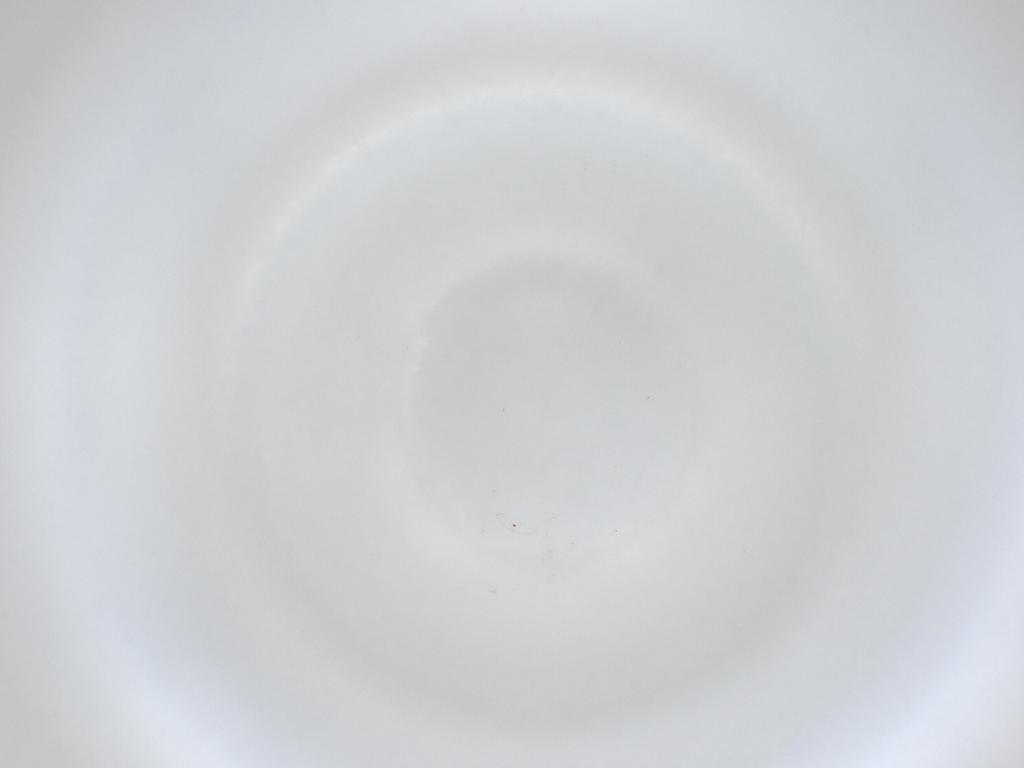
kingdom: Animalia
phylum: Arthropoda
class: Insecta
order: Diptera
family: Cecidomyiidae
